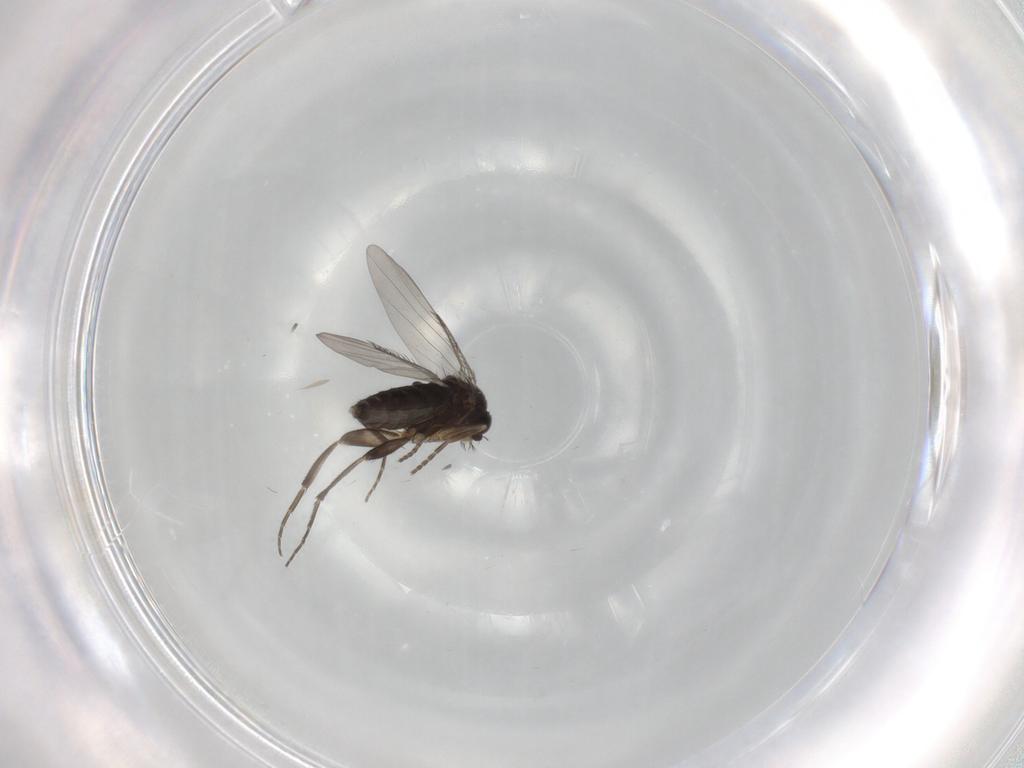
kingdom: Animalia
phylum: Arthropoda
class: Insecta
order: Diptera
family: Phoridae
